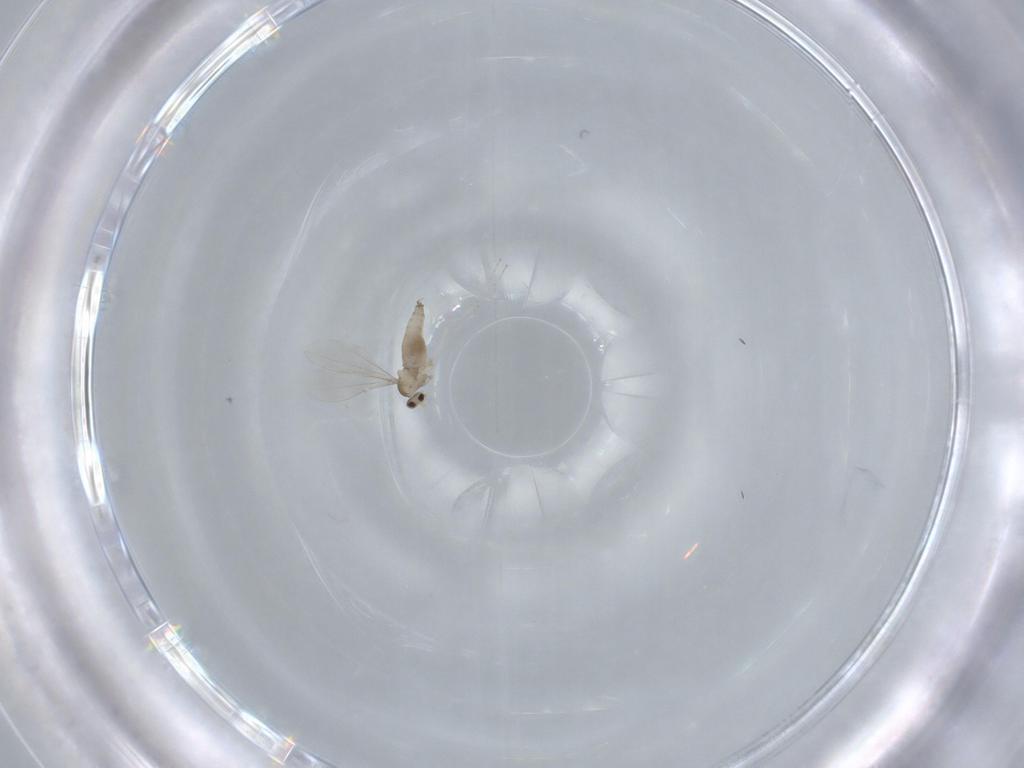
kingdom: Animalia
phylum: Arthropoda
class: Insecta
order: Diptera
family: Cecidomyiidae
